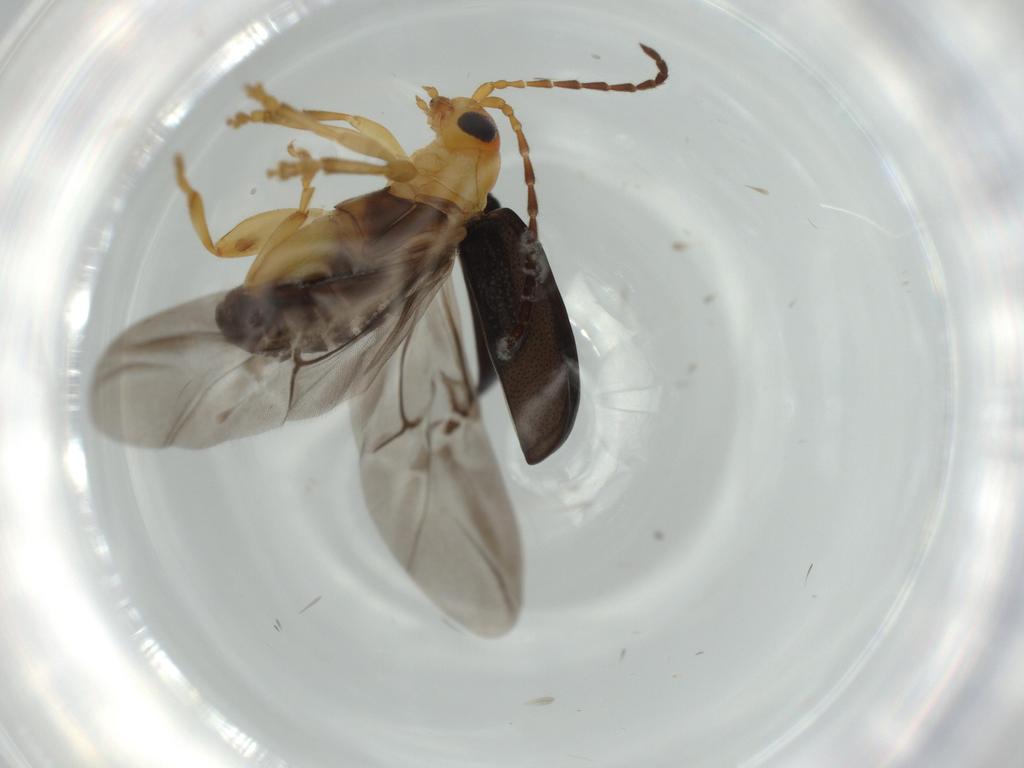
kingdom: Animalia
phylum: Arthropoda
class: Insecta
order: Coleoptera
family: Chrysomelidae
